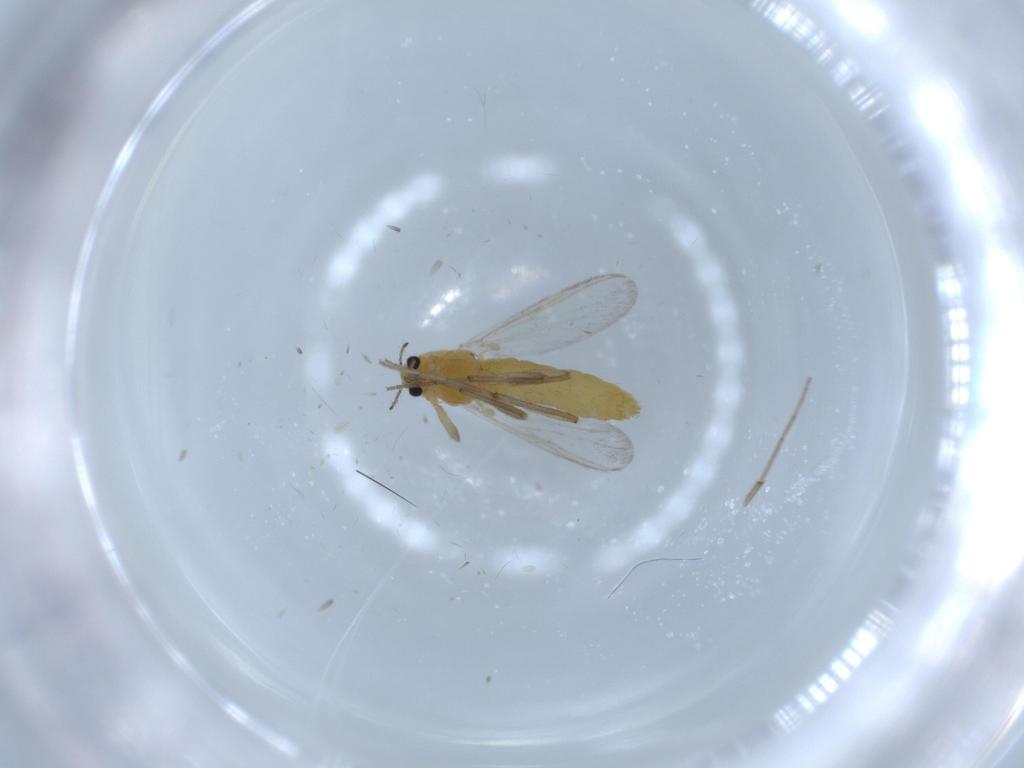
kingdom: Animalia
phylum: Arthropoda
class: Insecta
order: Diptera
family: Chironomidae
